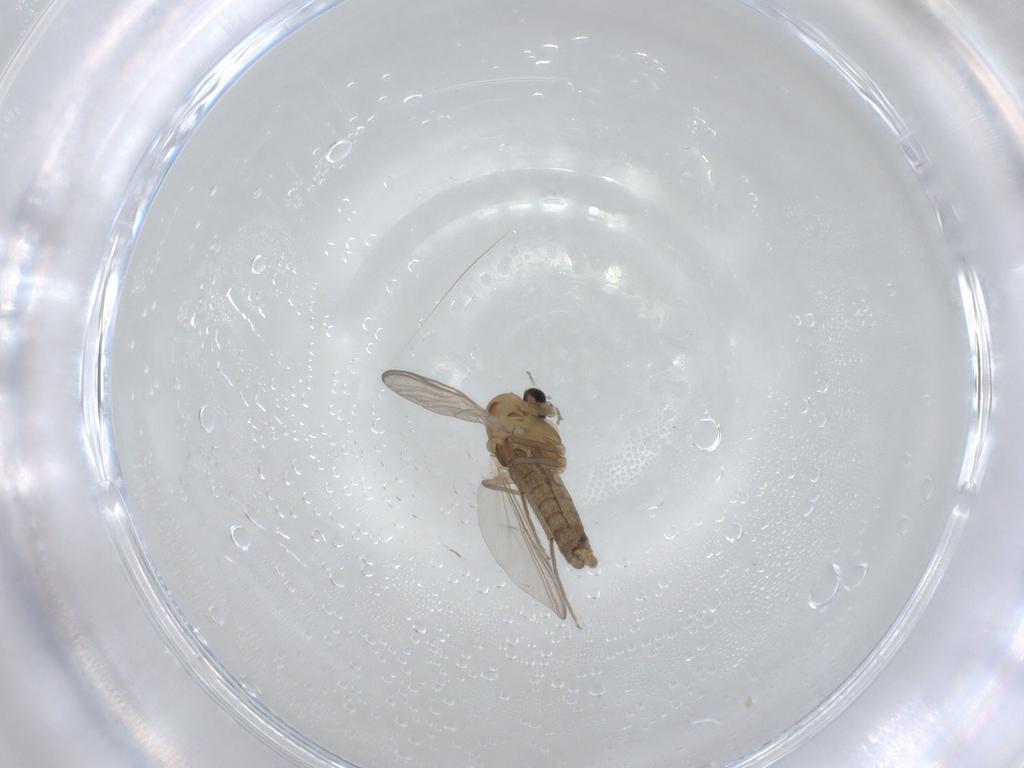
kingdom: Animalia
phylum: Arthropoda
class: Insecta
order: Diptera
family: Chironomidae
